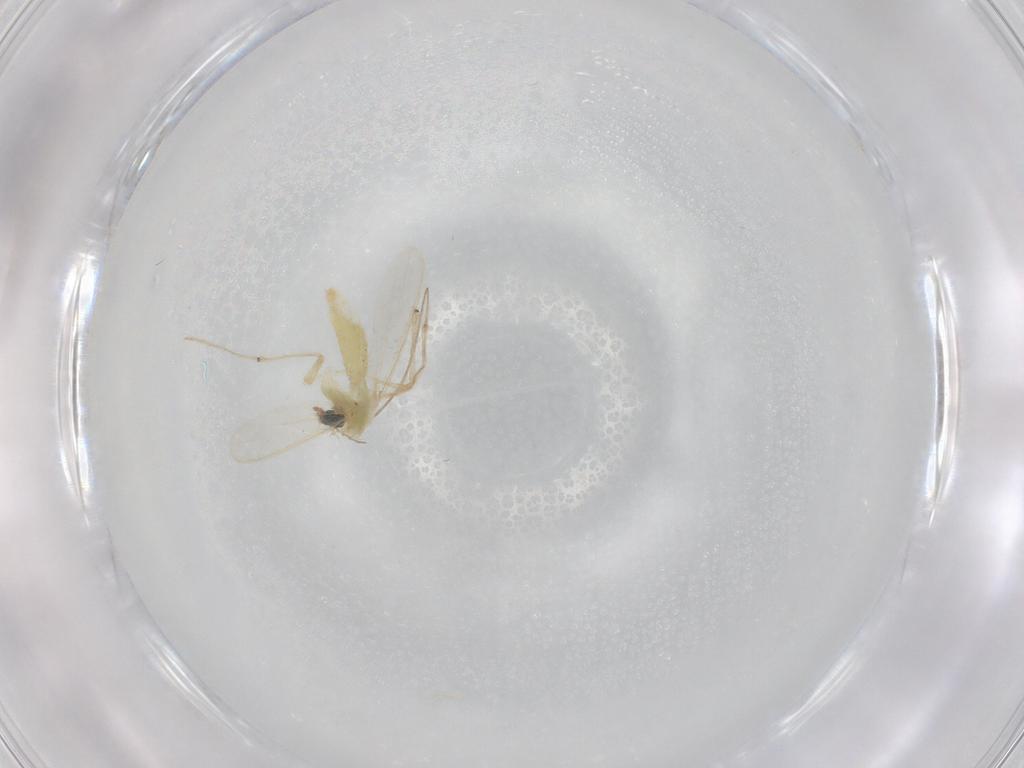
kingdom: Animalia
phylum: Arthropoda
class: Insecta
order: Diptera
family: Chironomidae
